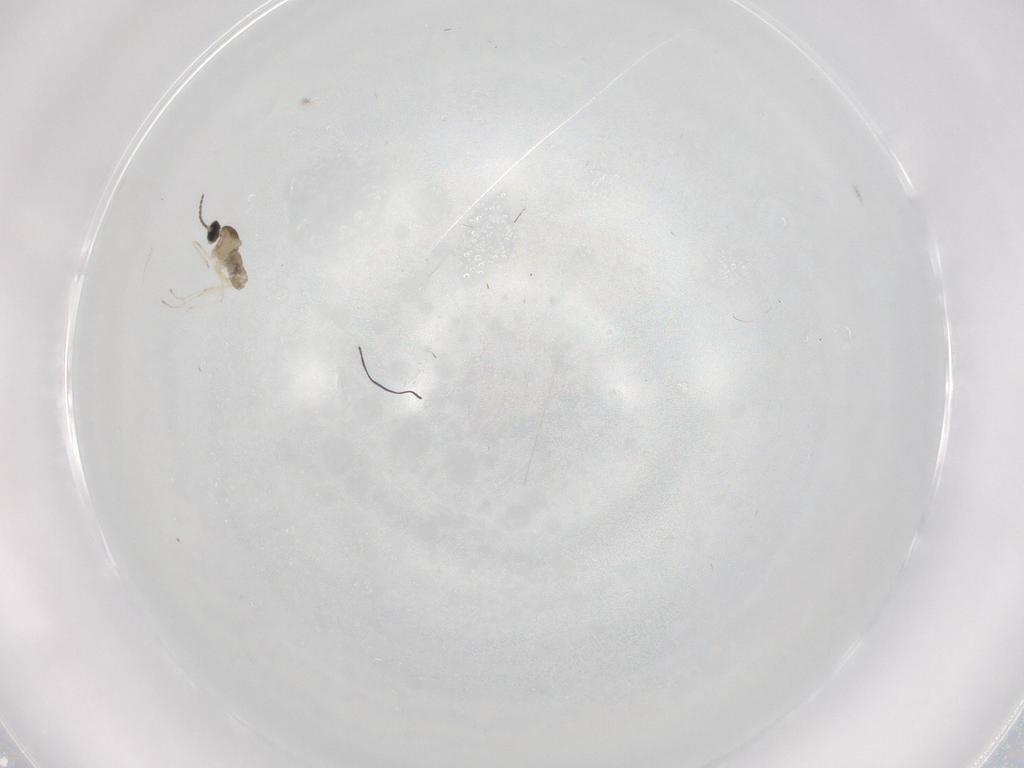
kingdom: Animalia
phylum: Arthropoda
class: Insecta
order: Diptera
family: Cecidomyiidae
